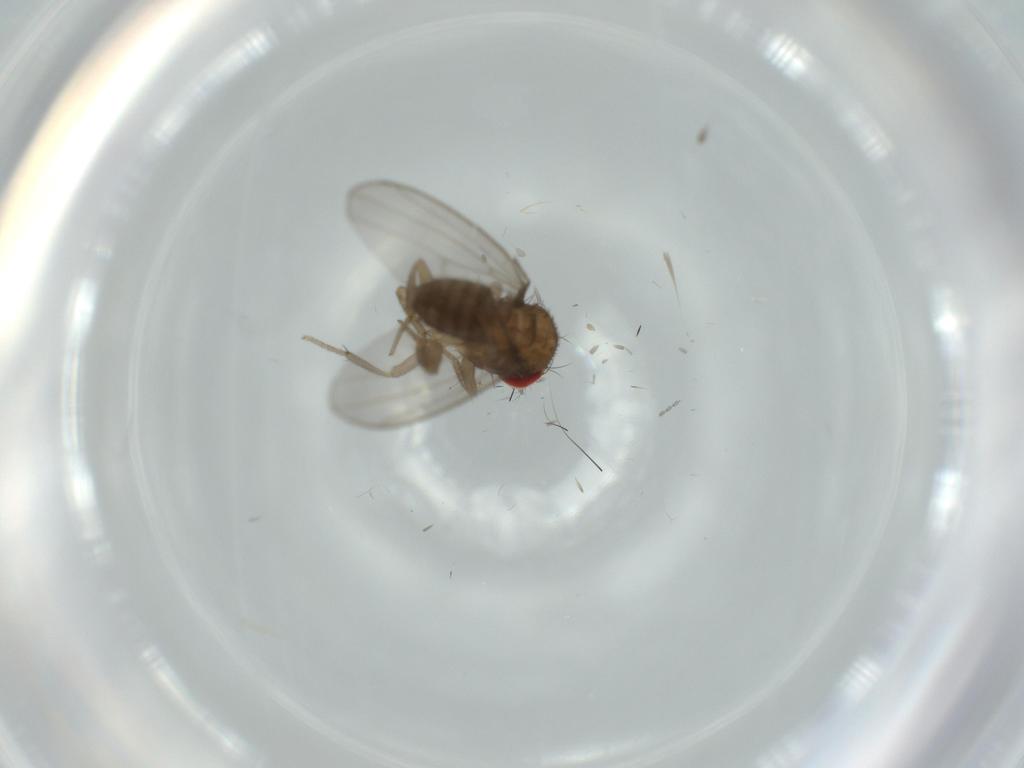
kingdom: Animalia
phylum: Arthropoda
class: Insecta
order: Diptera
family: Drosophilidae
